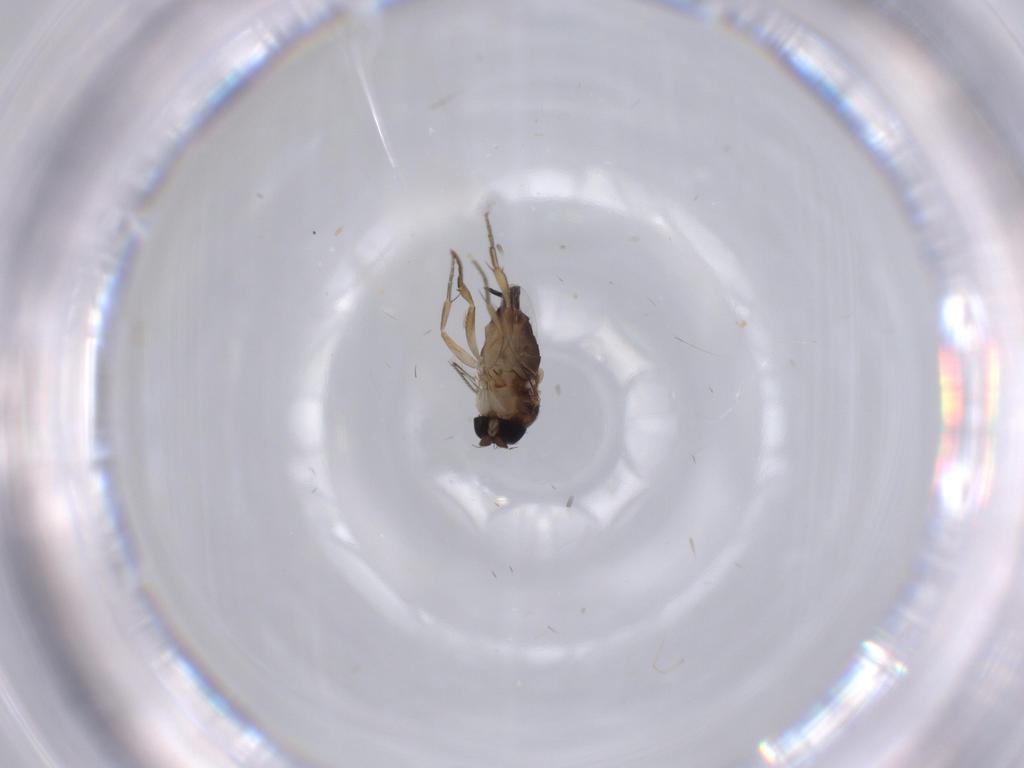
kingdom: Animalia
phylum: Arthropoda
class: Insecta
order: Diptera
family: Phoridae
